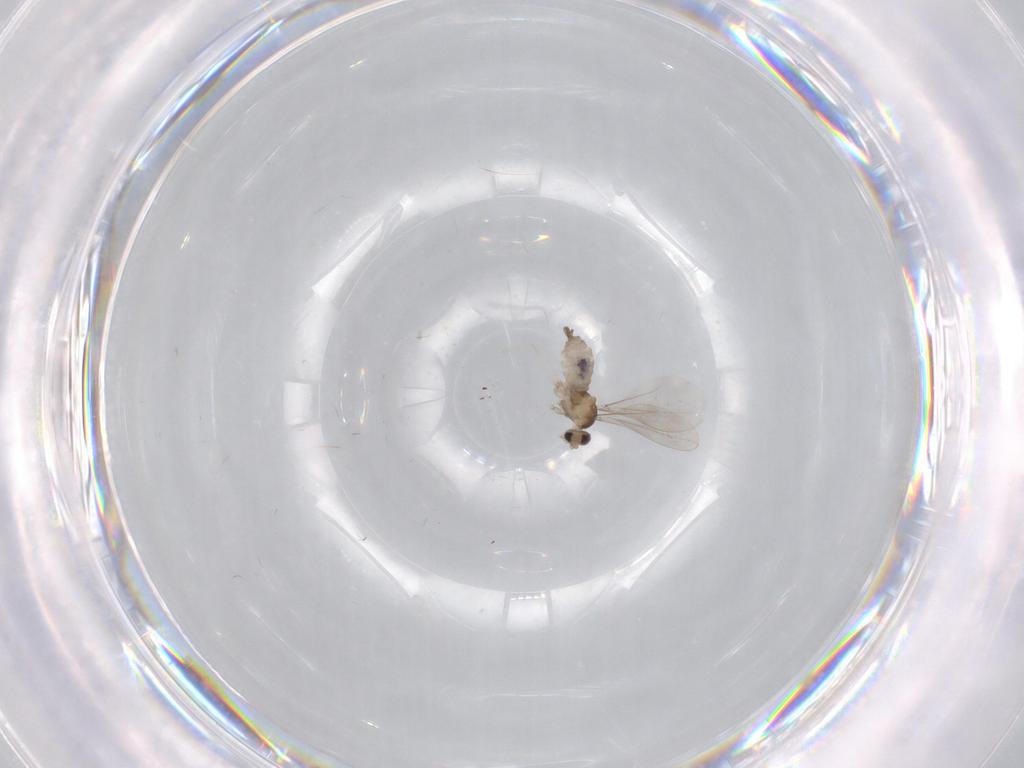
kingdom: Animalia
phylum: Arthropoda
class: Insecta
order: Diptera
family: Cecidomyiidae
